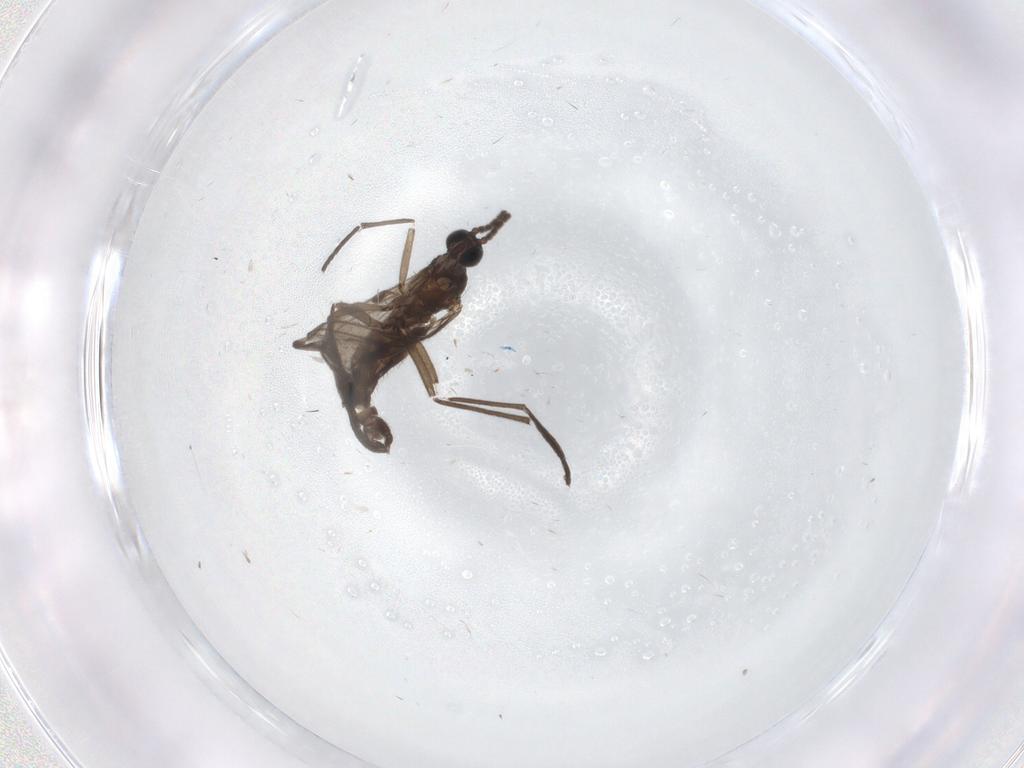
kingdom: Animalia
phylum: Arthropoda
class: Insecta
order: Diptera
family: Sciaridae
